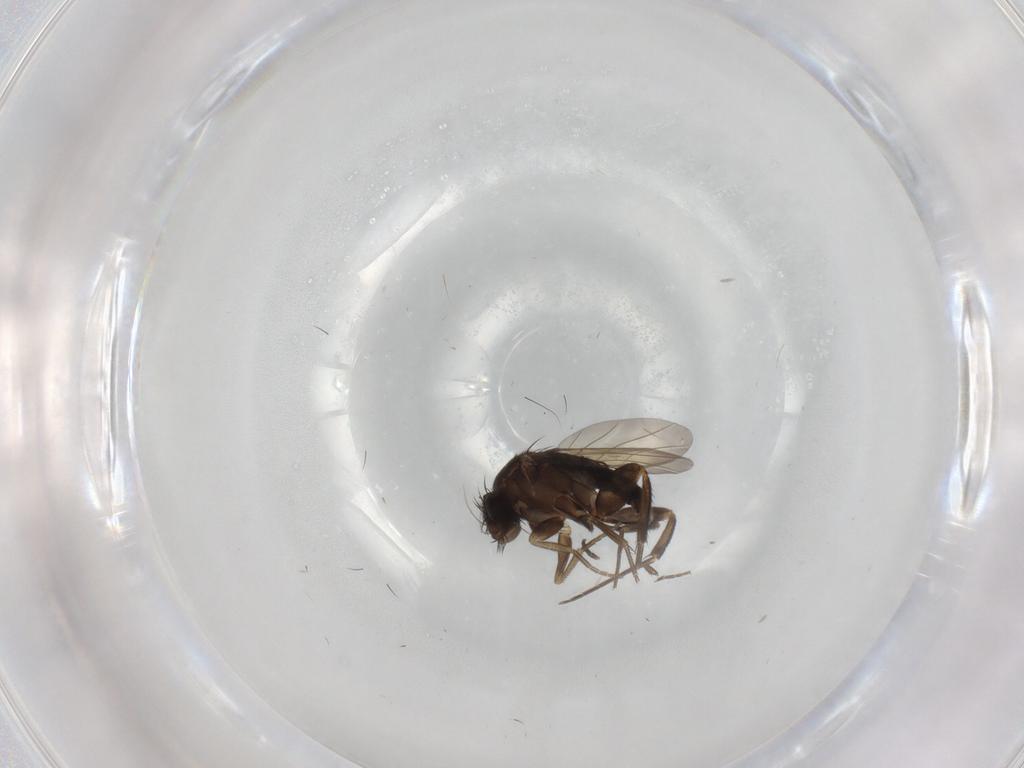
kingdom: Animalia
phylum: Arthropoda
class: Insecta
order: Diptera
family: Phoridae
